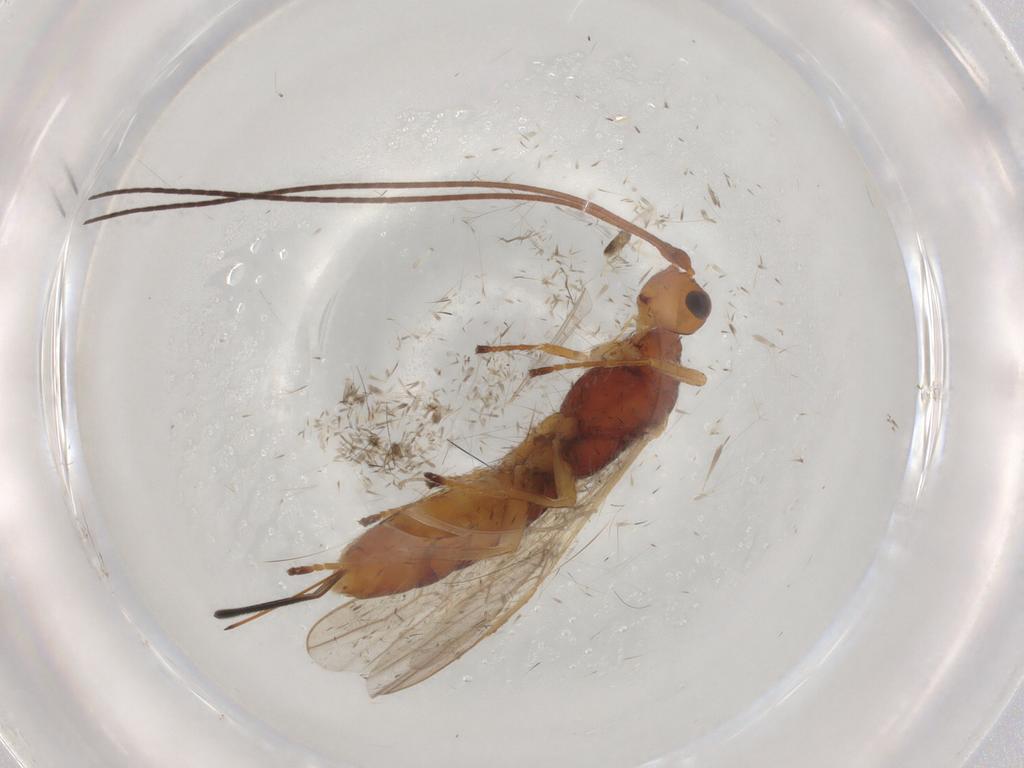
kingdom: Animalia
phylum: Arthropoda
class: Insecta
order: Hymenoptera
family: Braconidae
